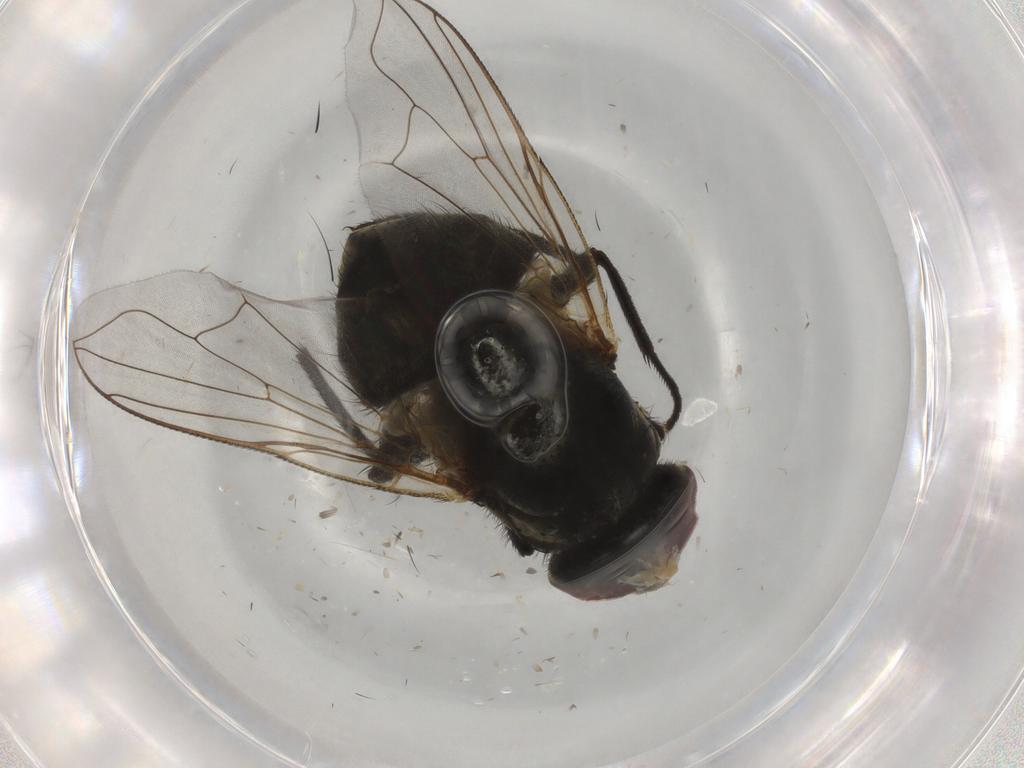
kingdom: Animalia
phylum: Arthropoda
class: Insecta
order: Diptera
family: Muscidae
